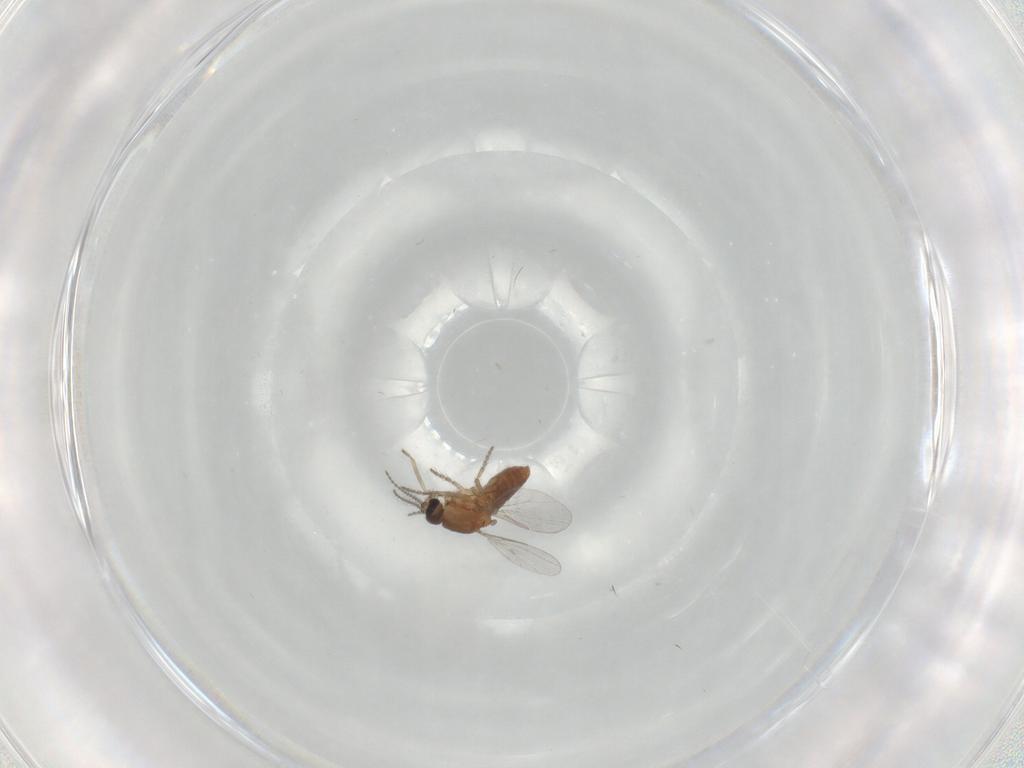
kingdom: Animalia
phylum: Arthropoda
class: Insecta
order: Diptera
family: Ceratopogonidae
